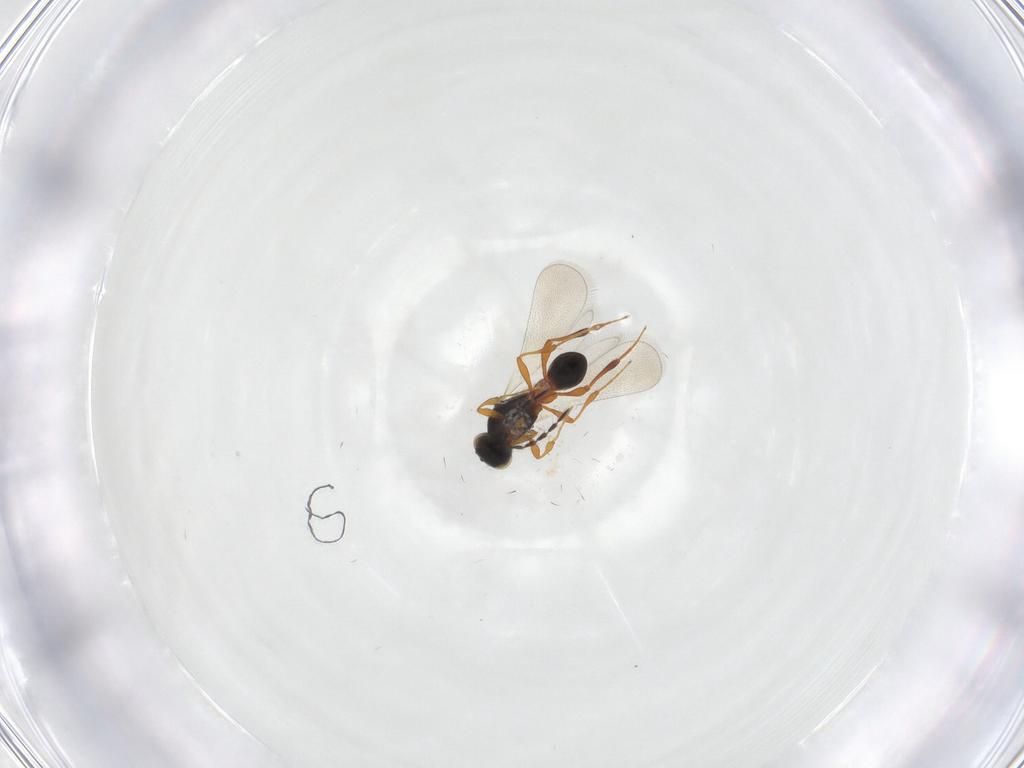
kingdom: Animalia
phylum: Arthropoda
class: Insecta
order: Hymenoptera
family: Platygastridae
